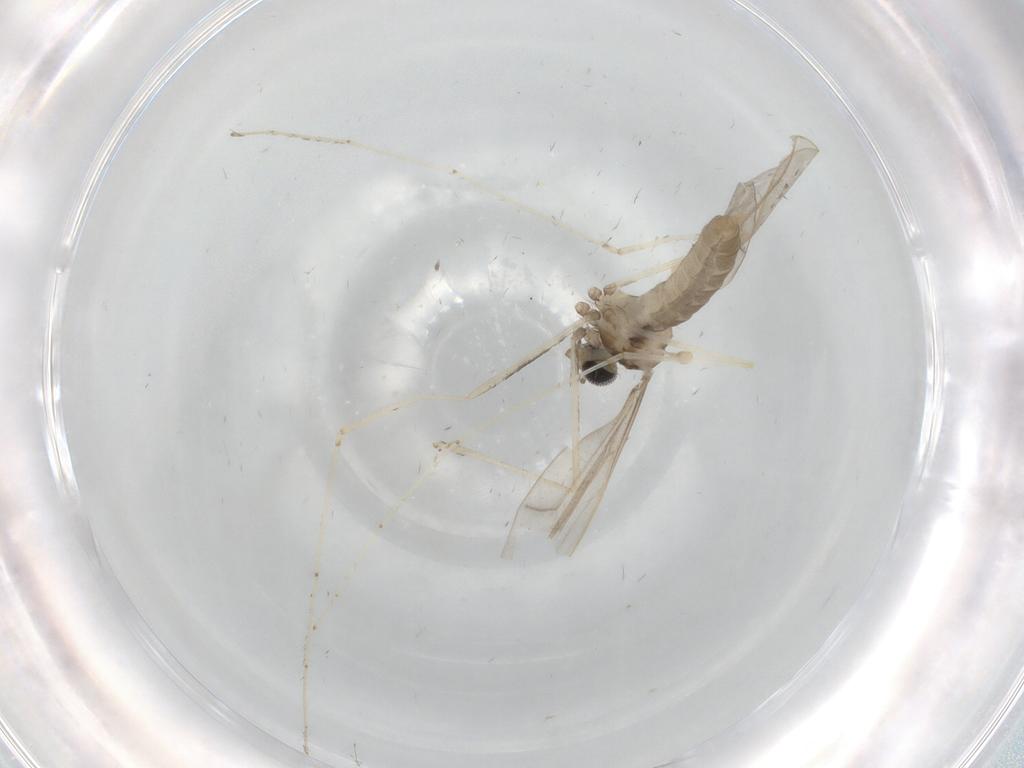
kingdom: Animalia
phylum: Arthropoda
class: Insecta
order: Diptera
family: Cecidomyiidae
